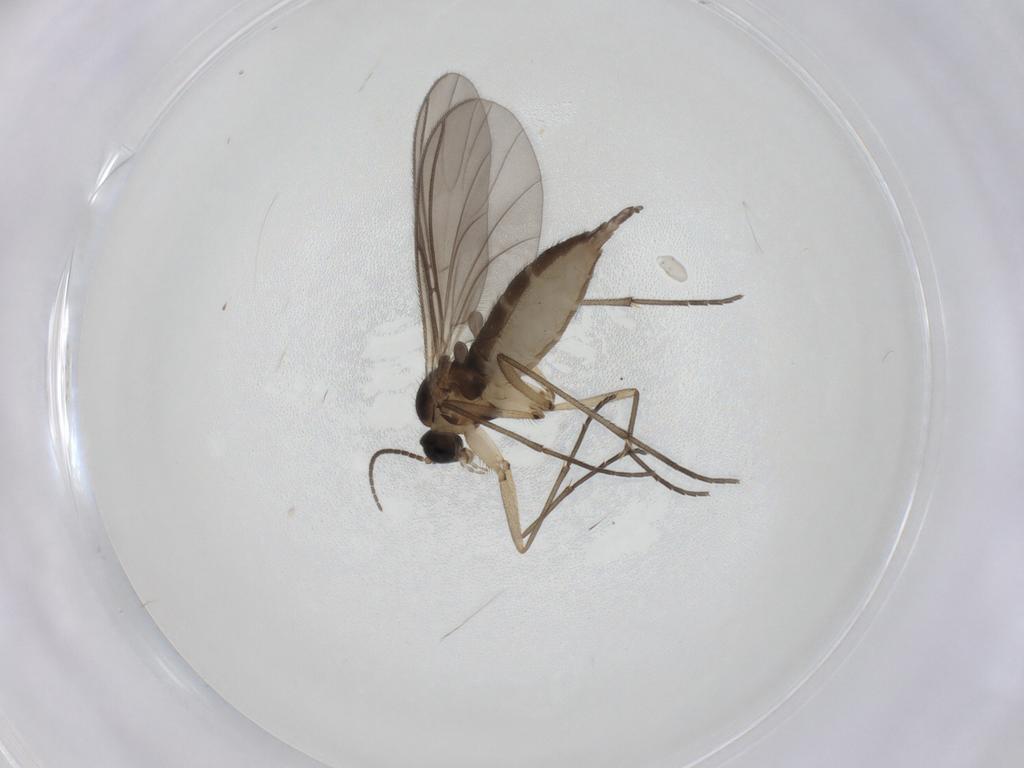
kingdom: Animalia
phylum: Arthropoda
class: Insecta
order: Diptera
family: Sciaridae
